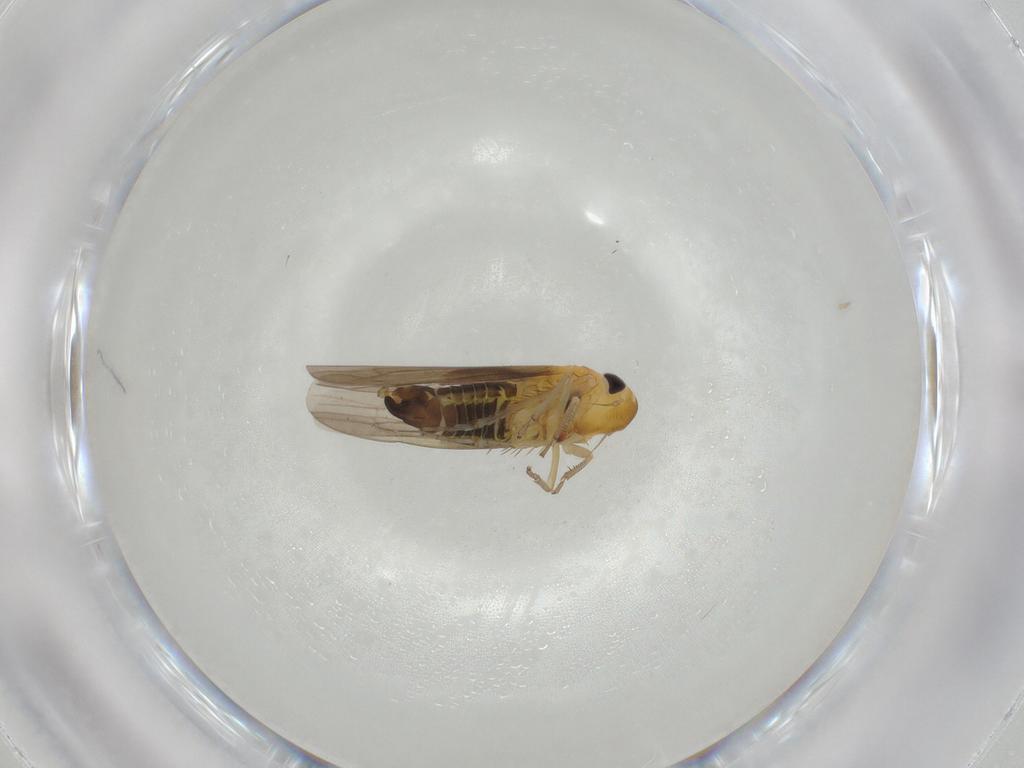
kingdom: Animalia
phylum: Arthropoda
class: Insecta
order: Hemiptera
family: Cicadellidae
